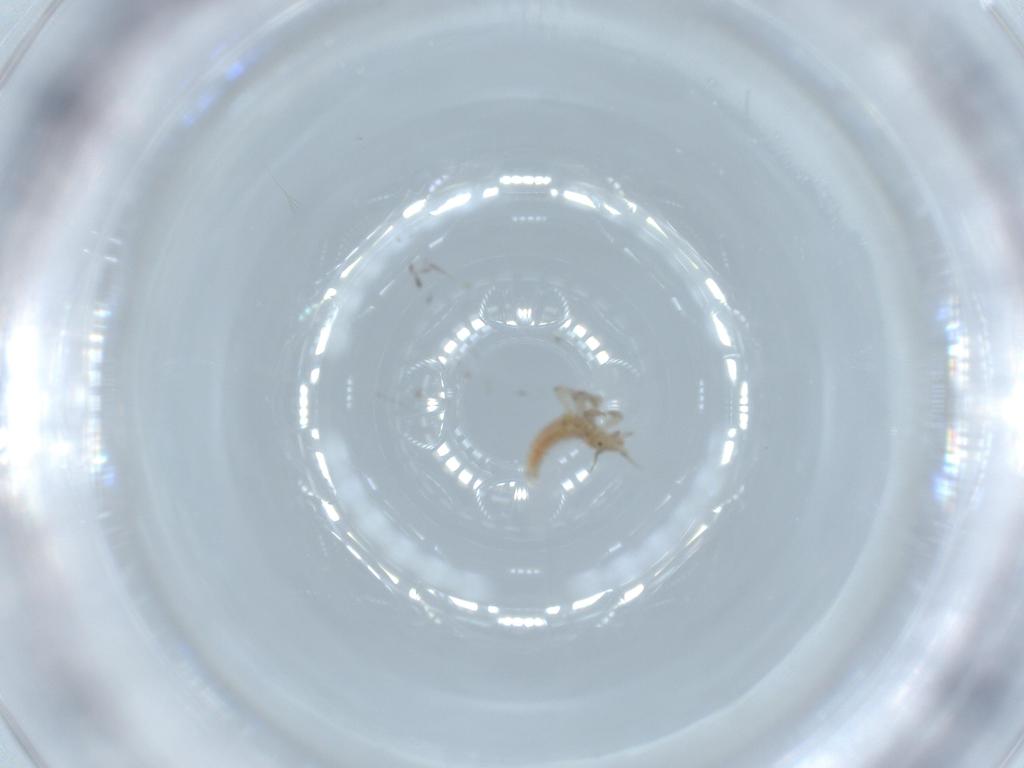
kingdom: Animalia
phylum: Arthropoda
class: Insecta
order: Neuroptera
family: Hemerobiidae
